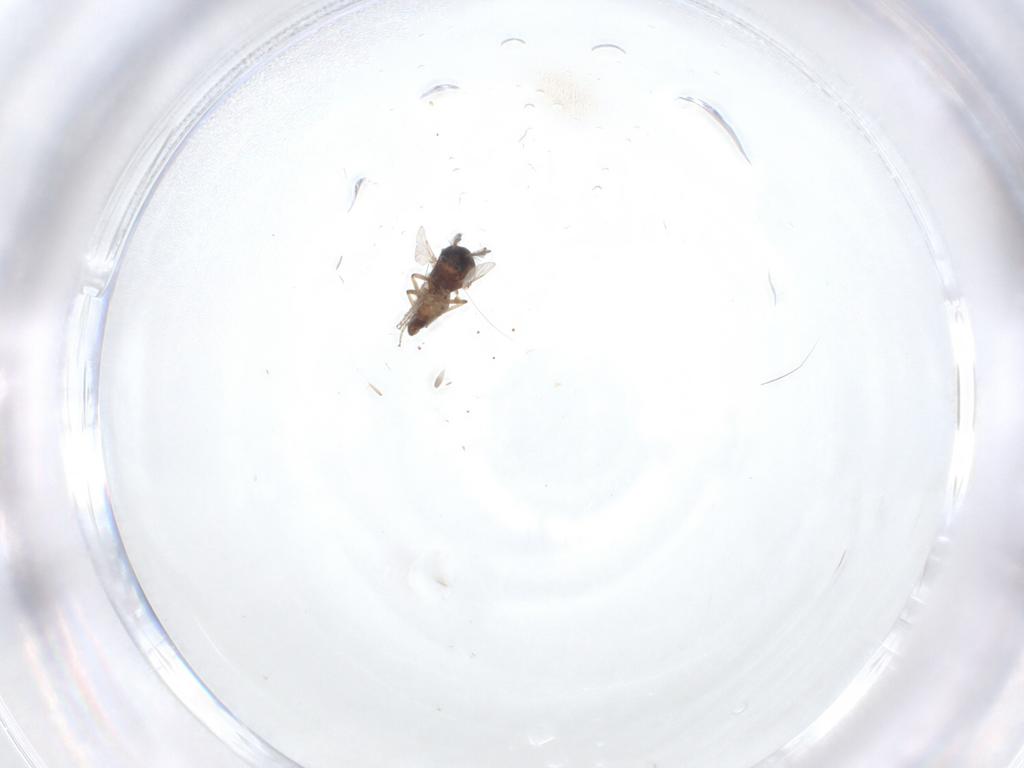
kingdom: Animalia
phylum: Arthropoda
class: Insecta
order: Diptera
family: Ceratopogonidae
